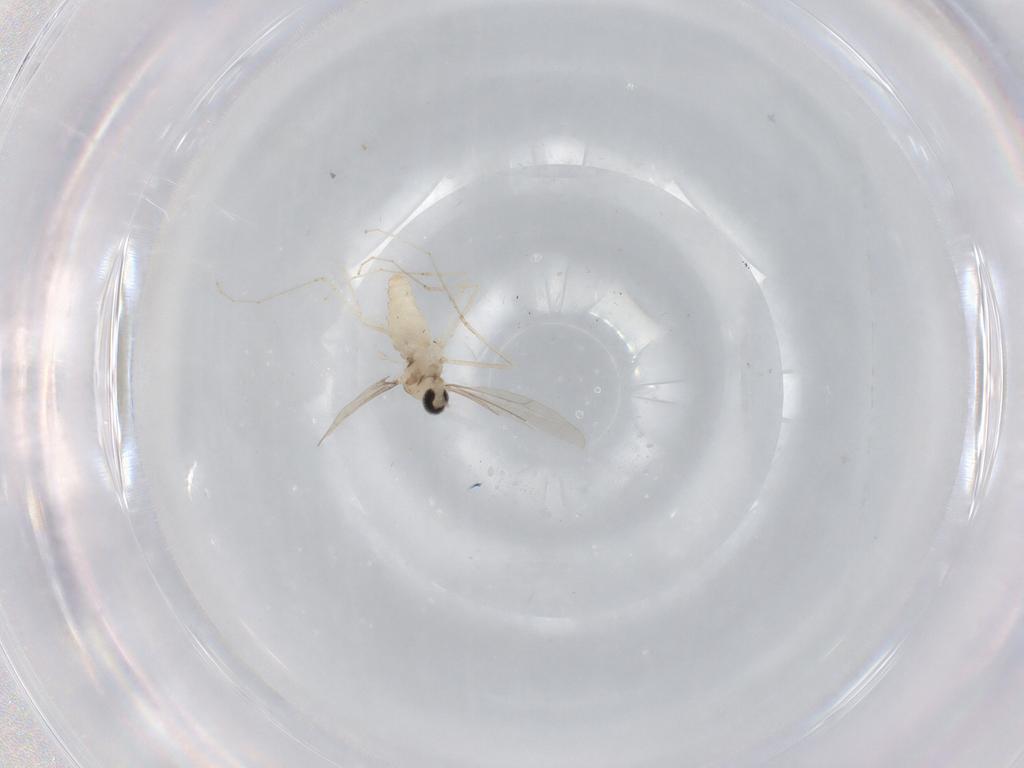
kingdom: Animalia
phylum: Arthropoda
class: Insecta
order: Diptera
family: Cecidomyiidae
